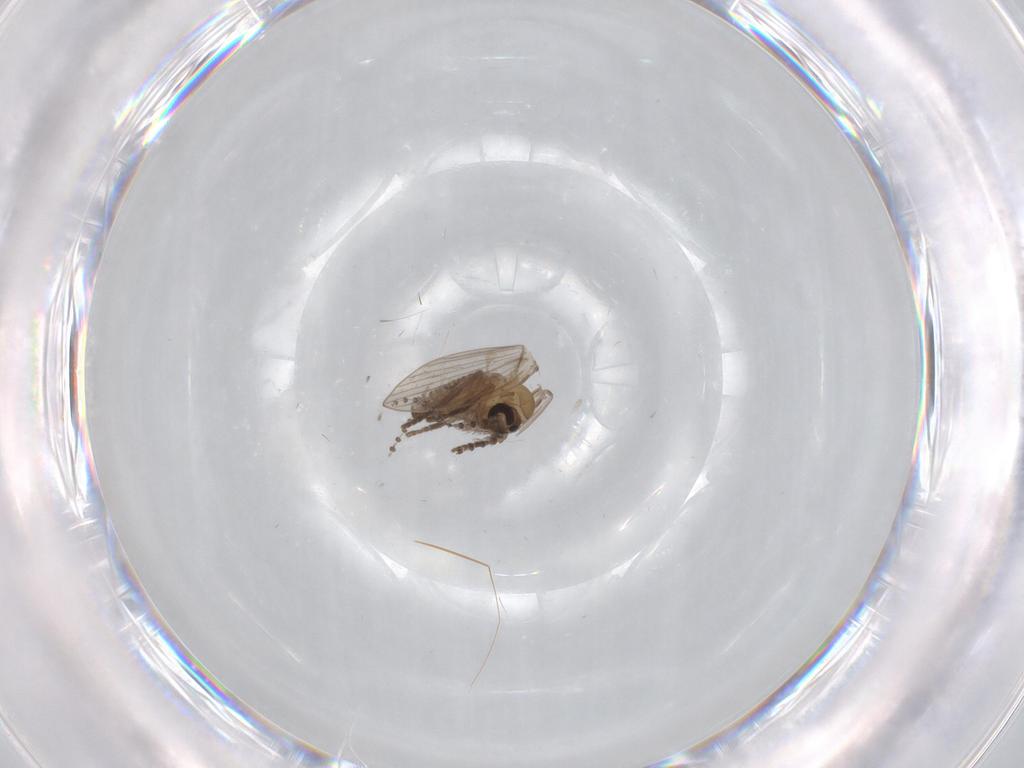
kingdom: Animalia
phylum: Arthropoda
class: Insecta
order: Diptera
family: Psychodidae
